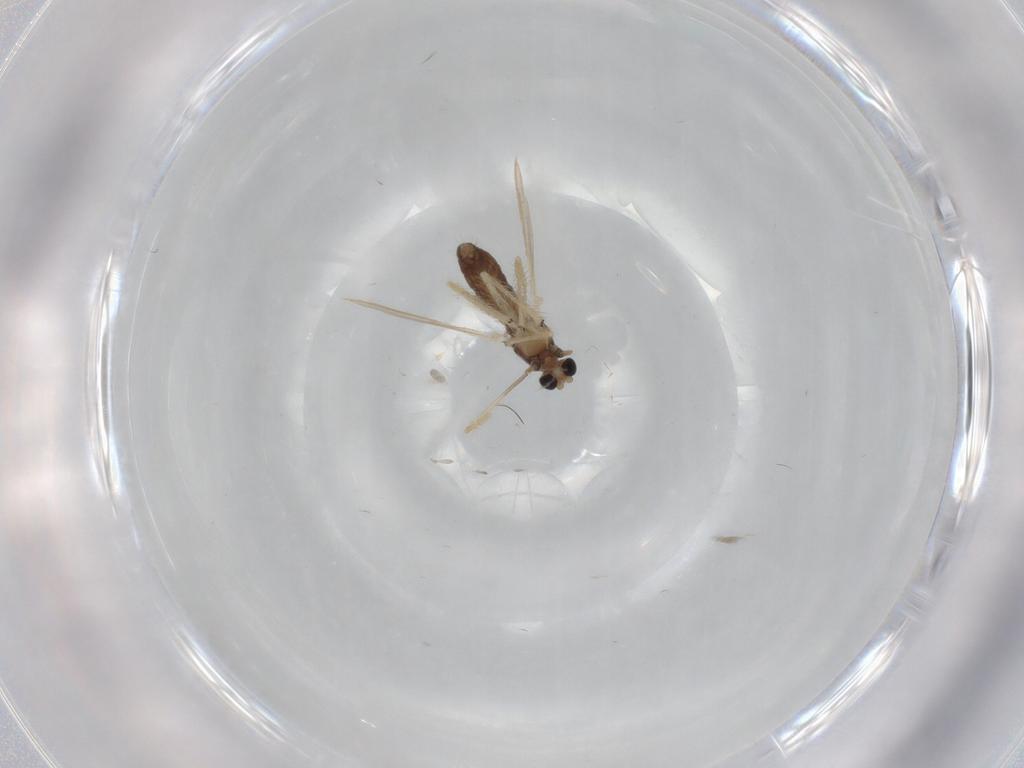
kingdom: Animalia
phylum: Arthropoda
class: Insecta
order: Diptera
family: Chironomidae
